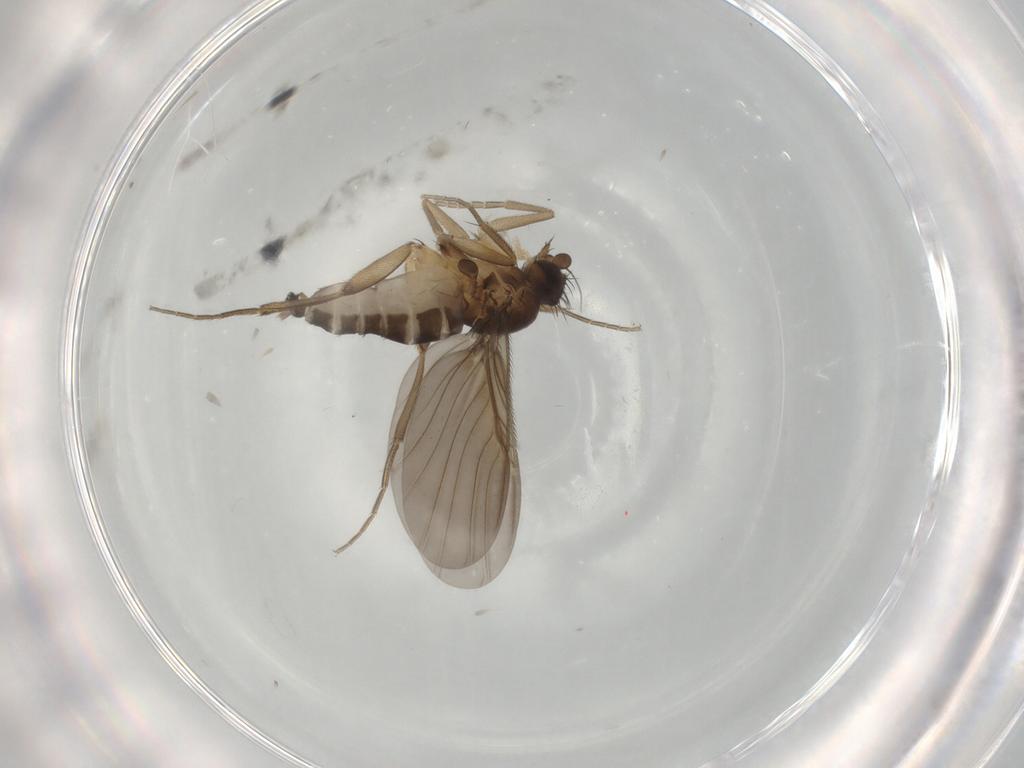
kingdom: Animalia
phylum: Arthropoda
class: Insecta
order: Diptera
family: Phoridae
